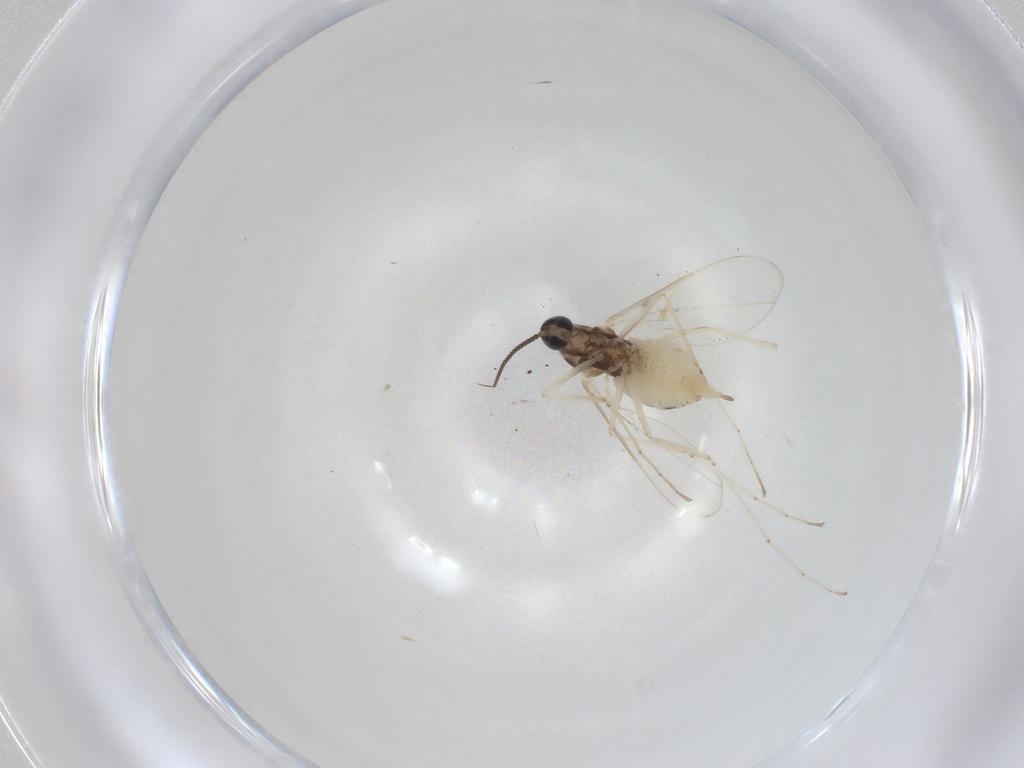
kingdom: Animalia
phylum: Arthropoda
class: Insecta
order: Diptera
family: Cecidomyiidae
